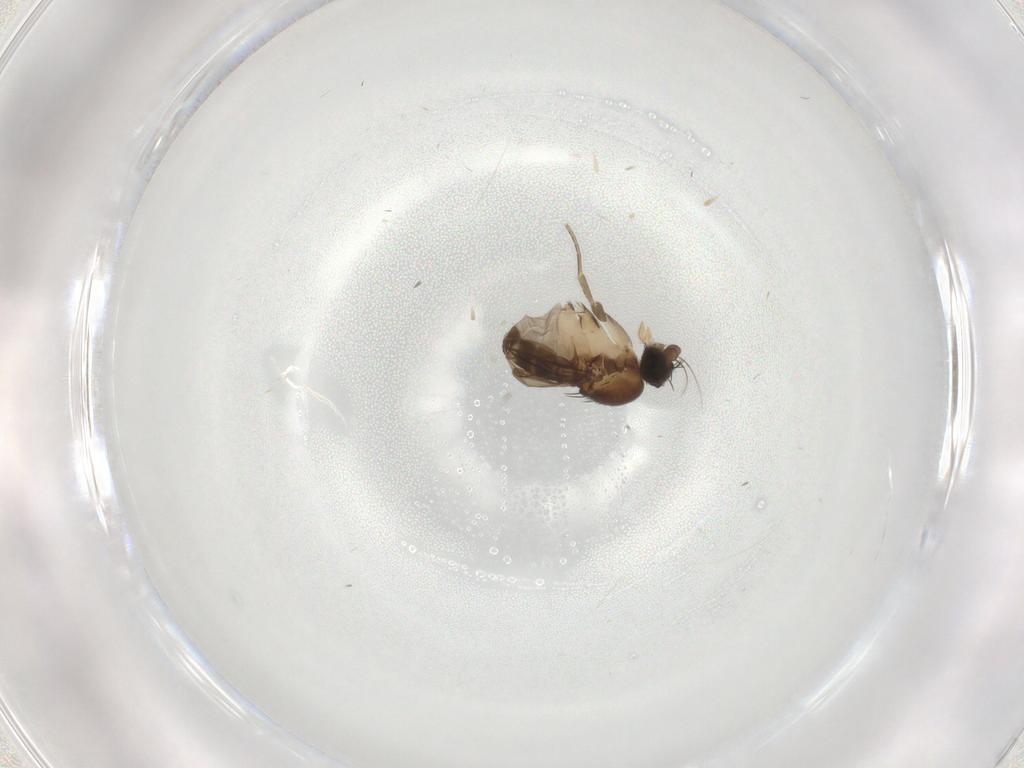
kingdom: Animalia
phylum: Arthropoda
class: Insecta
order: Diptera
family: Phoridae
